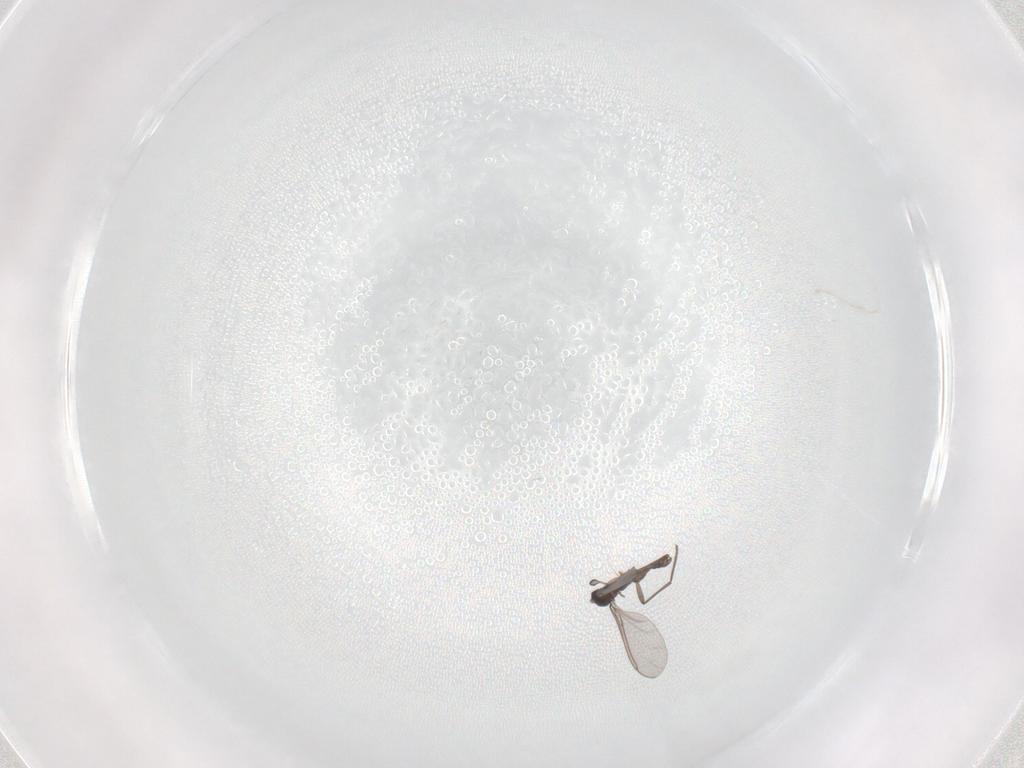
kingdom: Animalia
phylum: Arthropoda
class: Insecta
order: Diptera
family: Sciaridae
